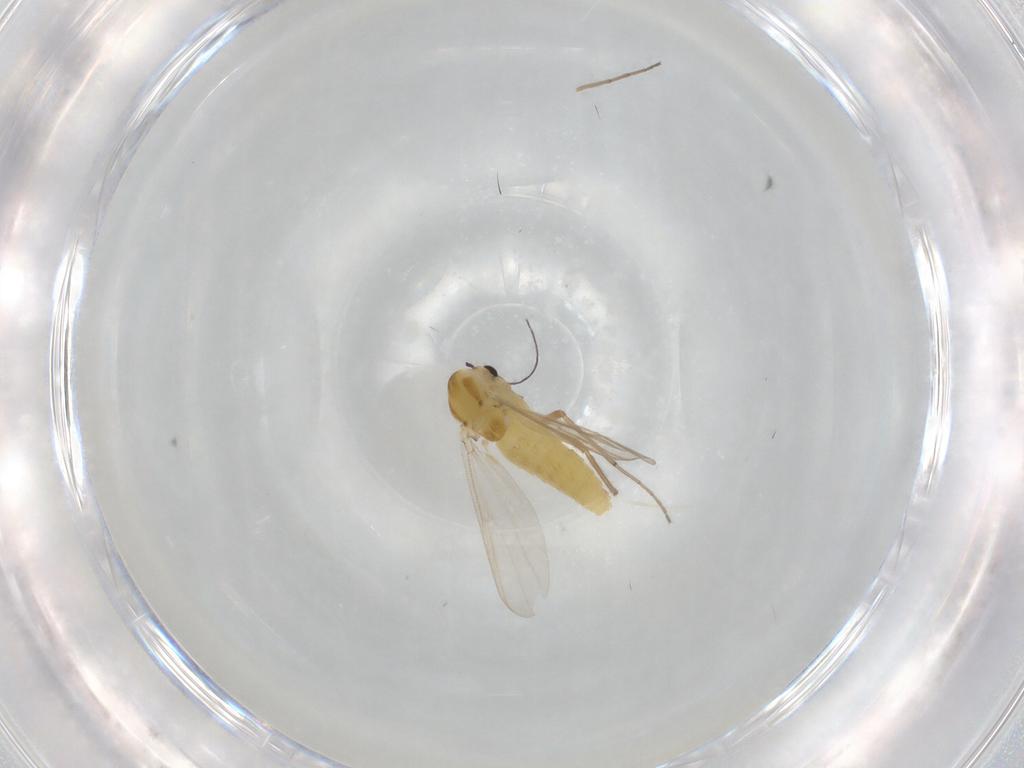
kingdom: Animalia
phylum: Arthropoda
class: Insecta
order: Diptera
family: Chironomidae
